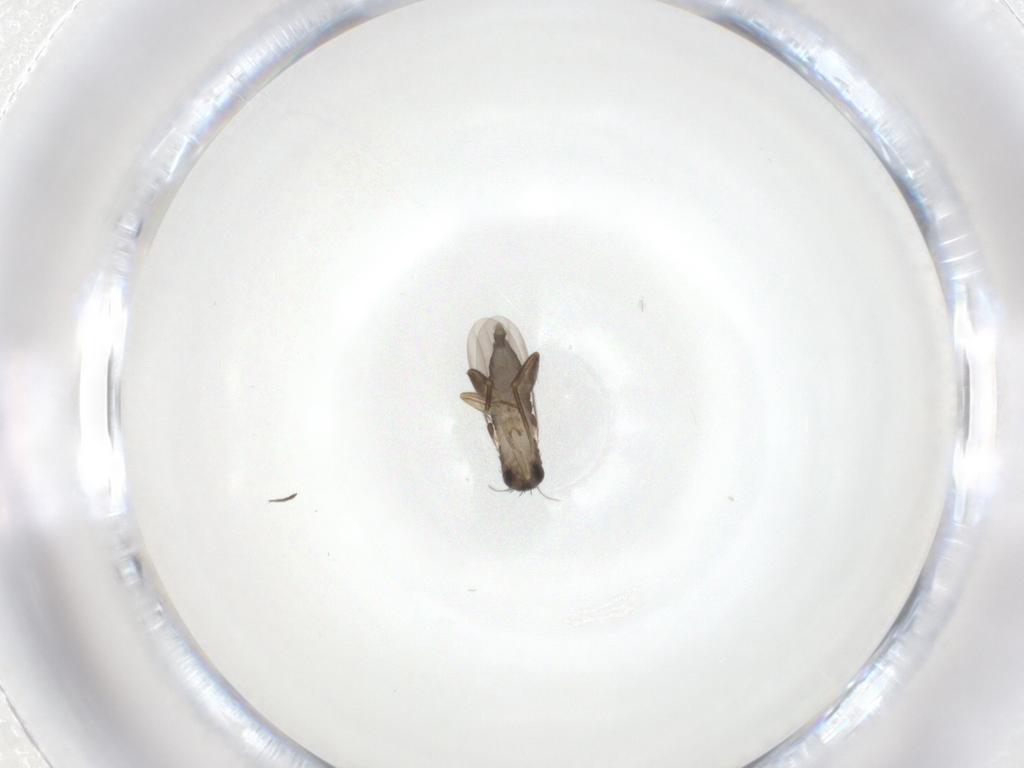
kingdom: Animalia
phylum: Arthropoda
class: Insecta
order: Diptera
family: Phoridae
